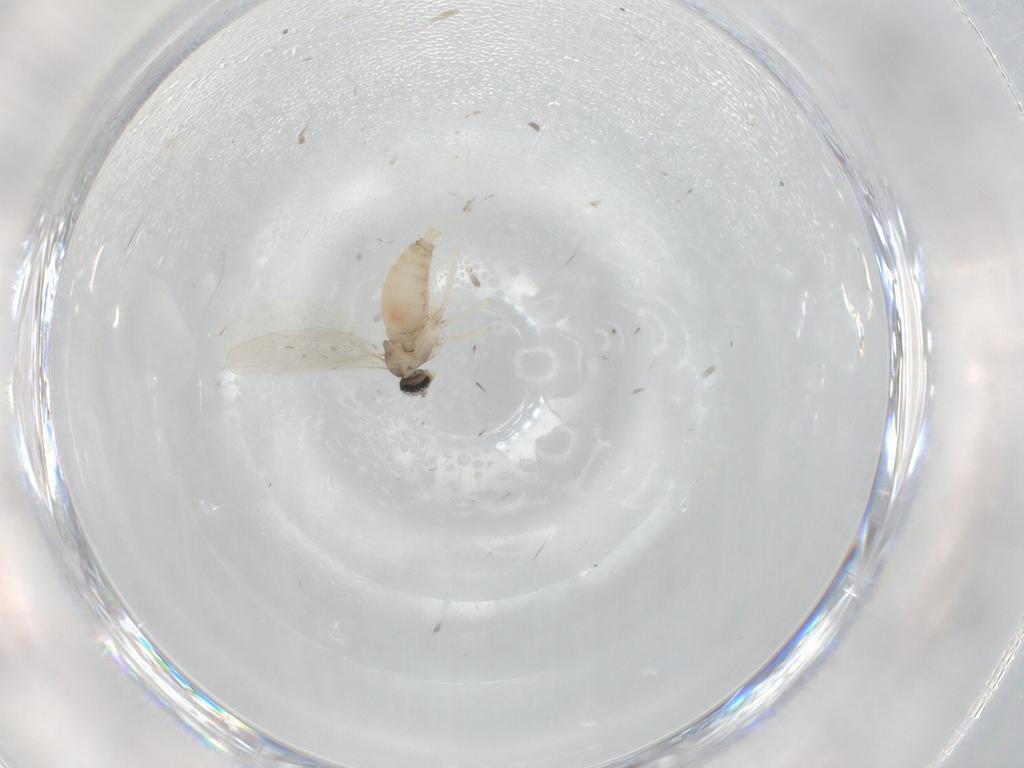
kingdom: Animalia
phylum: Arthropoda
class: Insecta
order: Diptera
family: Cecidomyiidae
